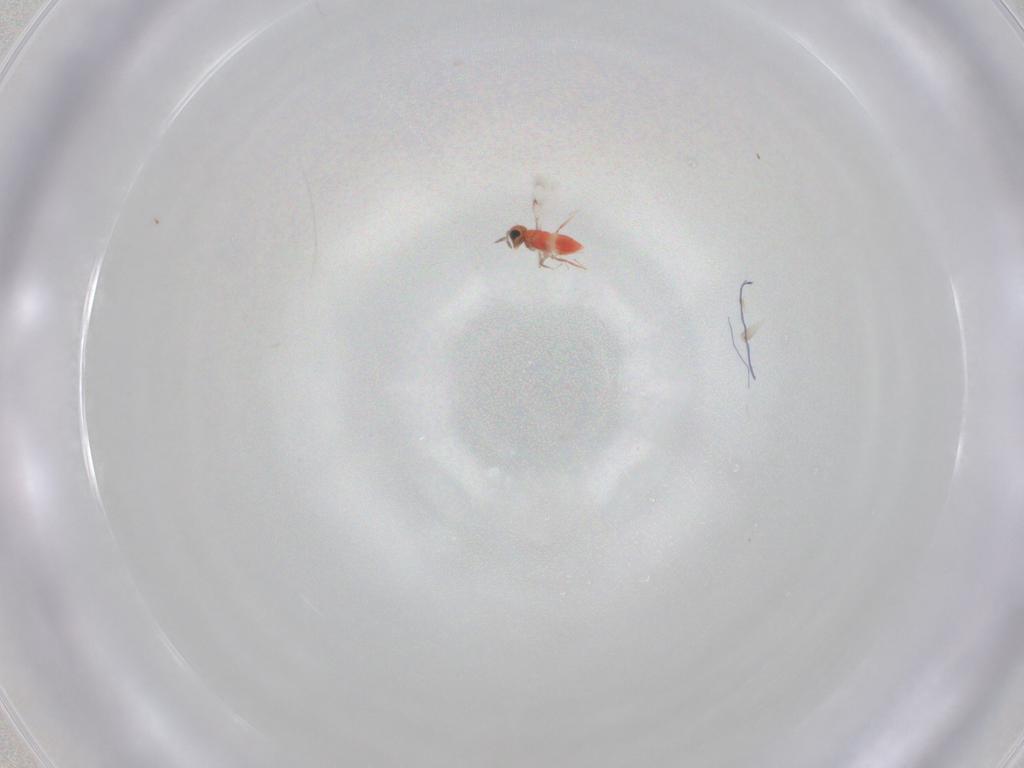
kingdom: Animalia
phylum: Arthropoda
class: Insecta
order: Hymenoptera
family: Trichogrammatidae
